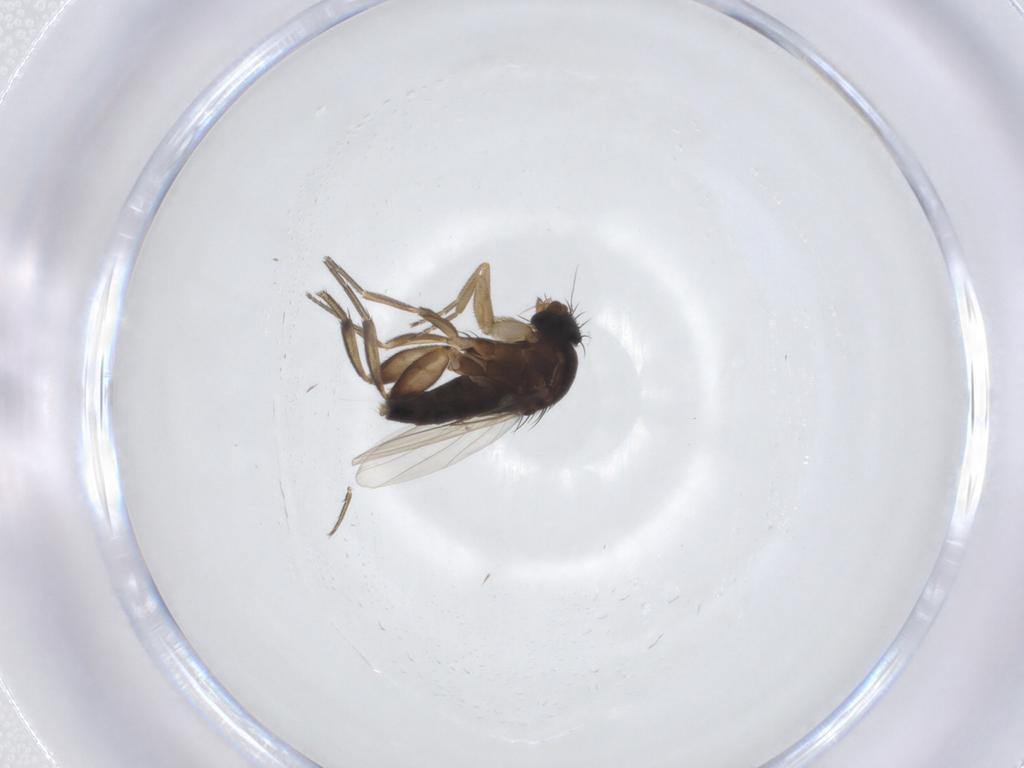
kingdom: Animalia
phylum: Arthropoda
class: Insecta
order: Diptera
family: Phoridae
